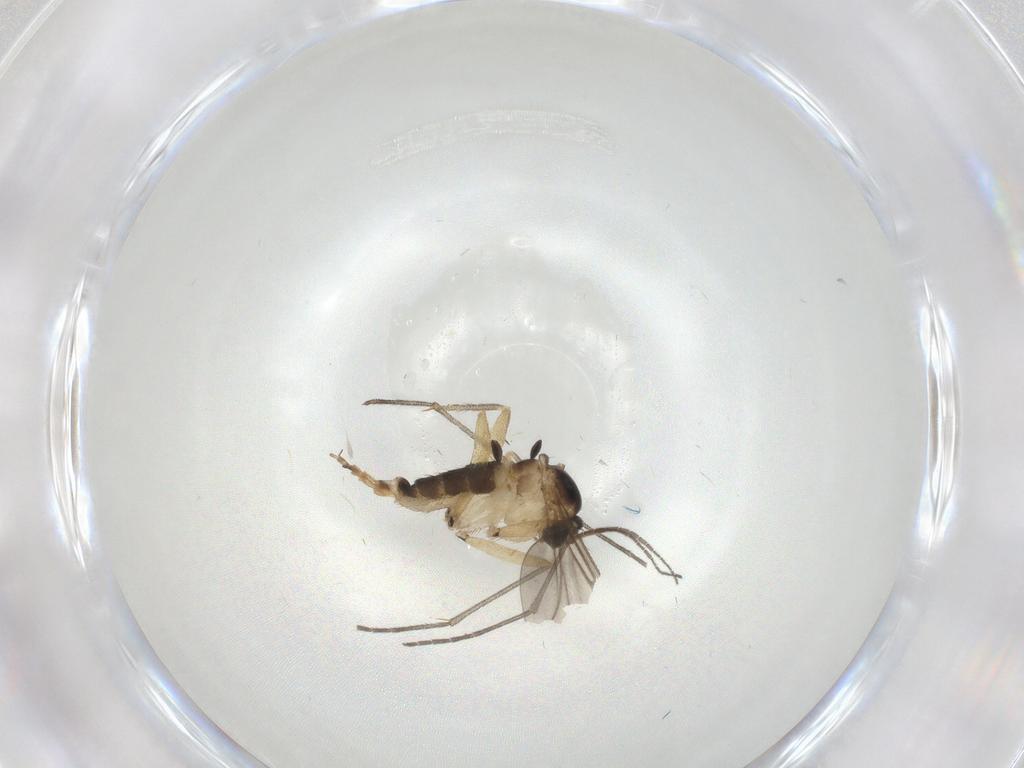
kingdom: Animalia
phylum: Arthropoda
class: Insecta
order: Diptera
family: Sciaridae
